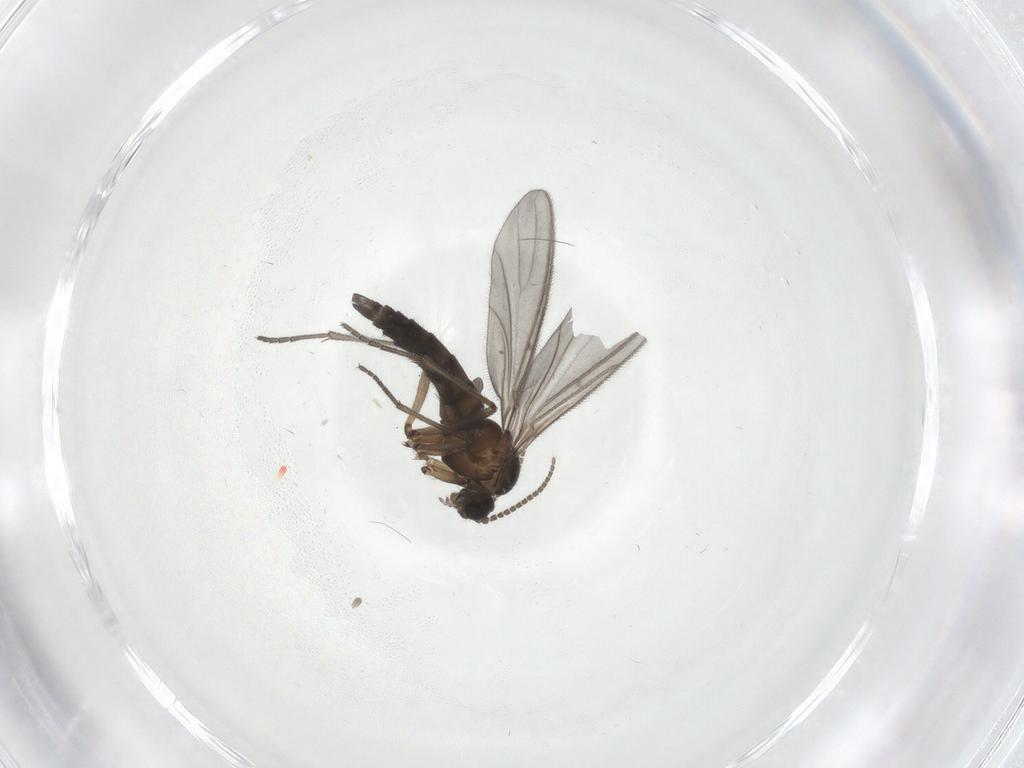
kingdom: Animalia
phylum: Arthropoda
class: Insecta
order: Diptera
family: Sciaridae
